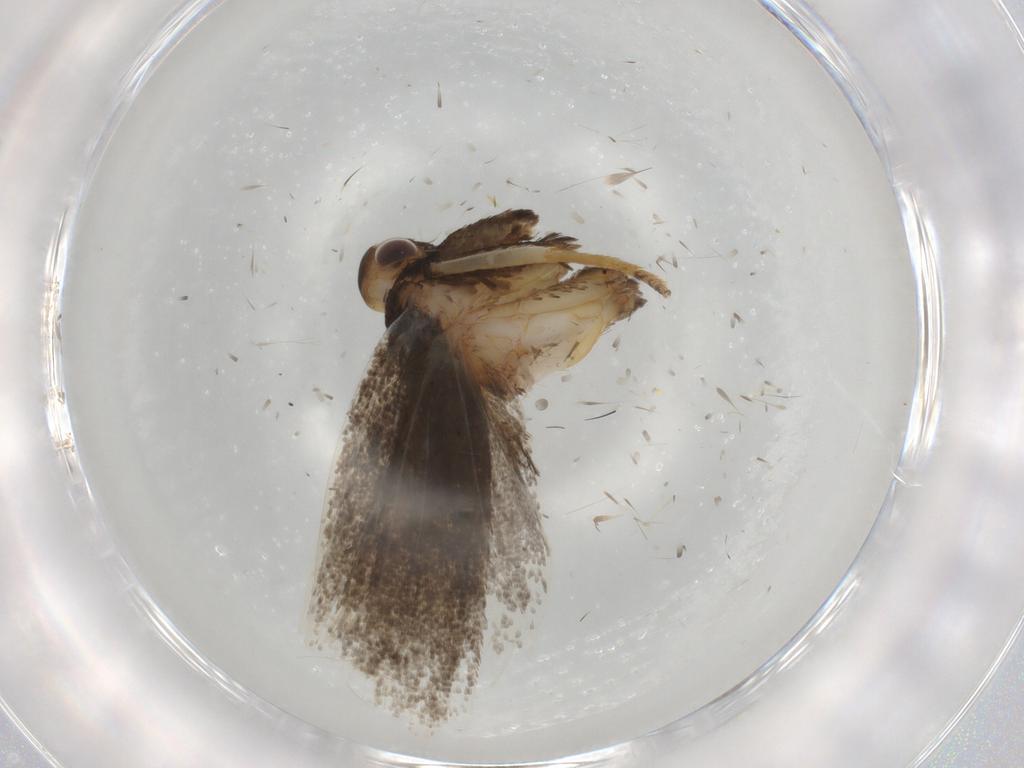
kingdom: Animalia
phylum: Arthropoda
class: Insecta
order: Lepidoptera
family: Lecithoceridae
